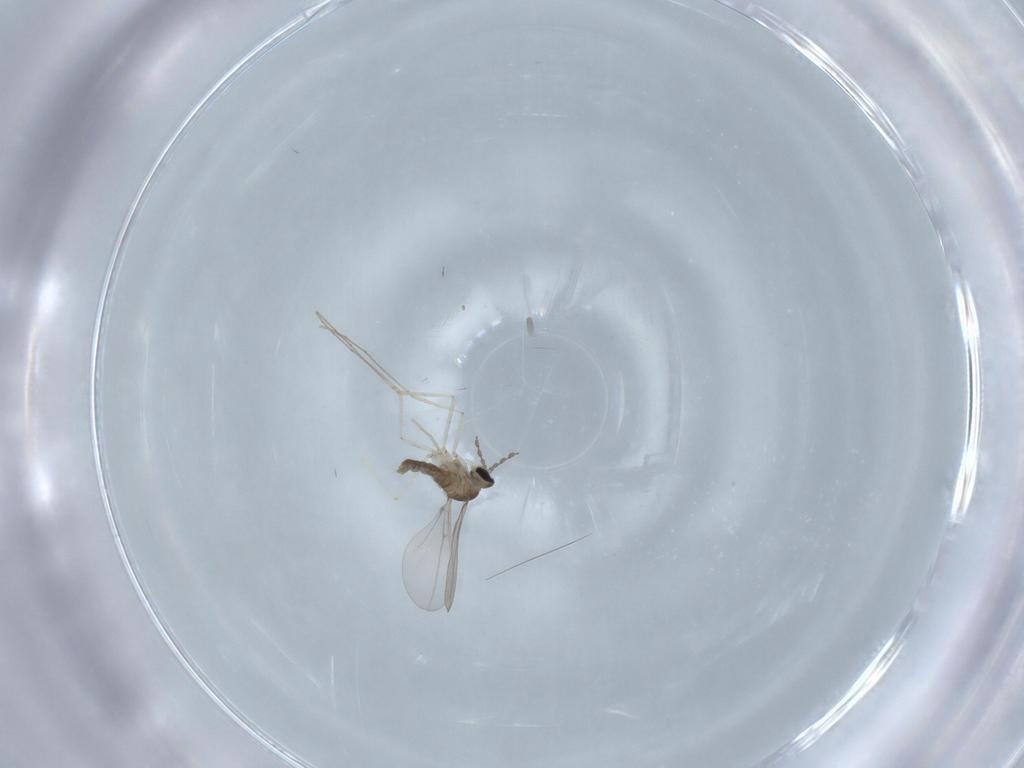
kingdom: Animalia
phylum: Arthropoda
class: Insecta
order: Diptera
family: Cecidomyiidae
